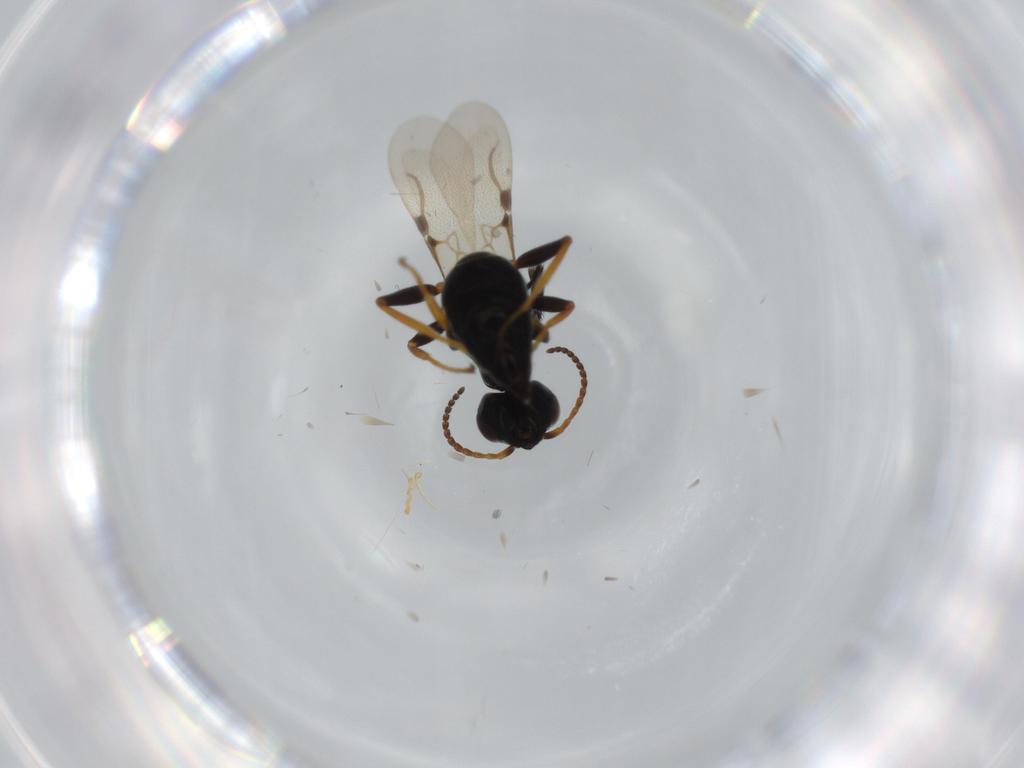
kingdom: Animalia
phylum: Arthropoda
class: Insecta
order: Hymenoptera
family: Bethylidae
